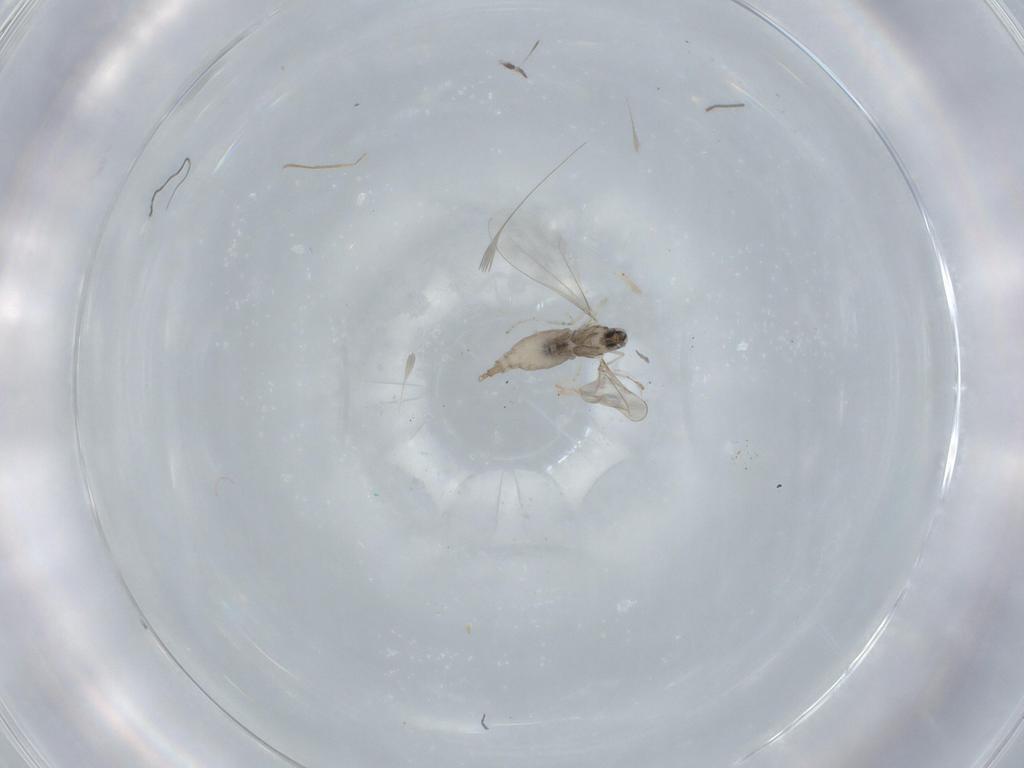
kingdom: Animalia
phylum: Arthropoda
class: Insecta
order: Diptera
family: Cecidomyiidae
